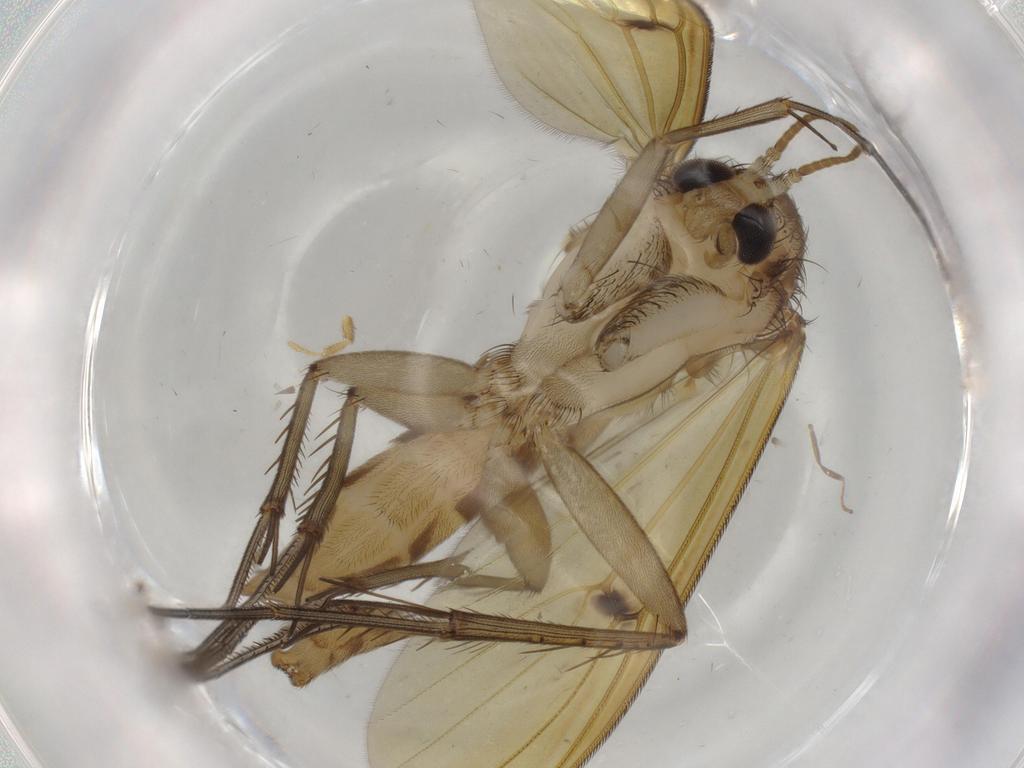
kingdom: Animalia
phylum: Arthropoda
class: Insecta
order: Diptera
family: Mycetophilidae
